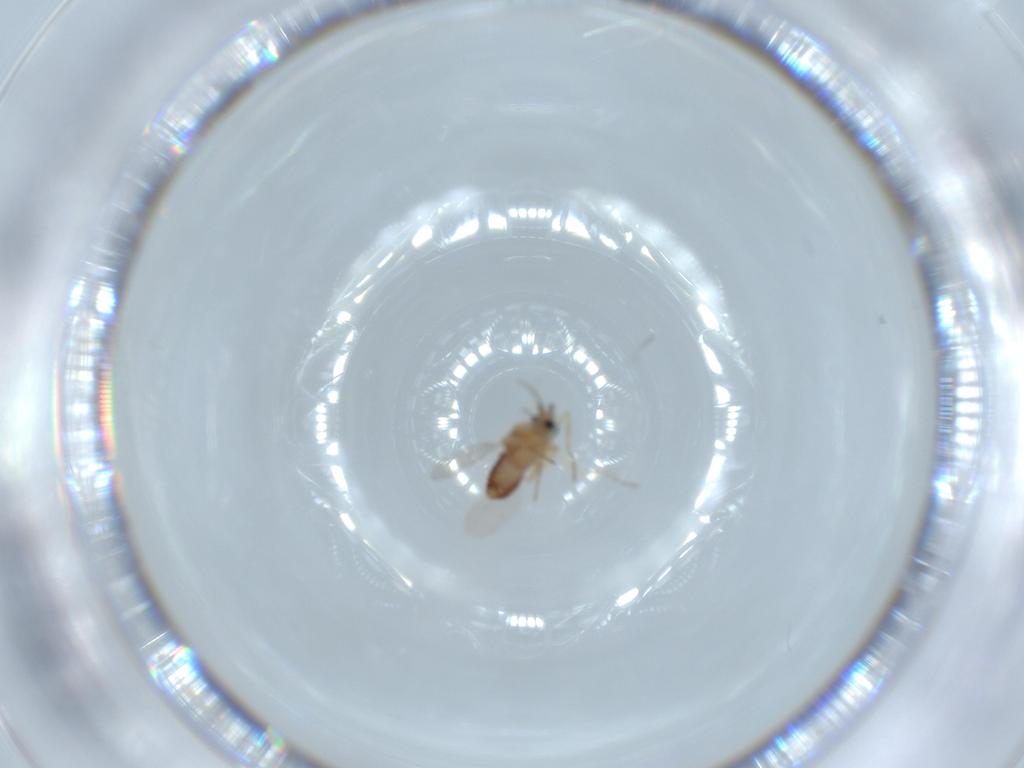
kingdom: Animalia
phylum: Arthropoda
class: Insecta
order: Diptera
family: Ceratopogonidae
